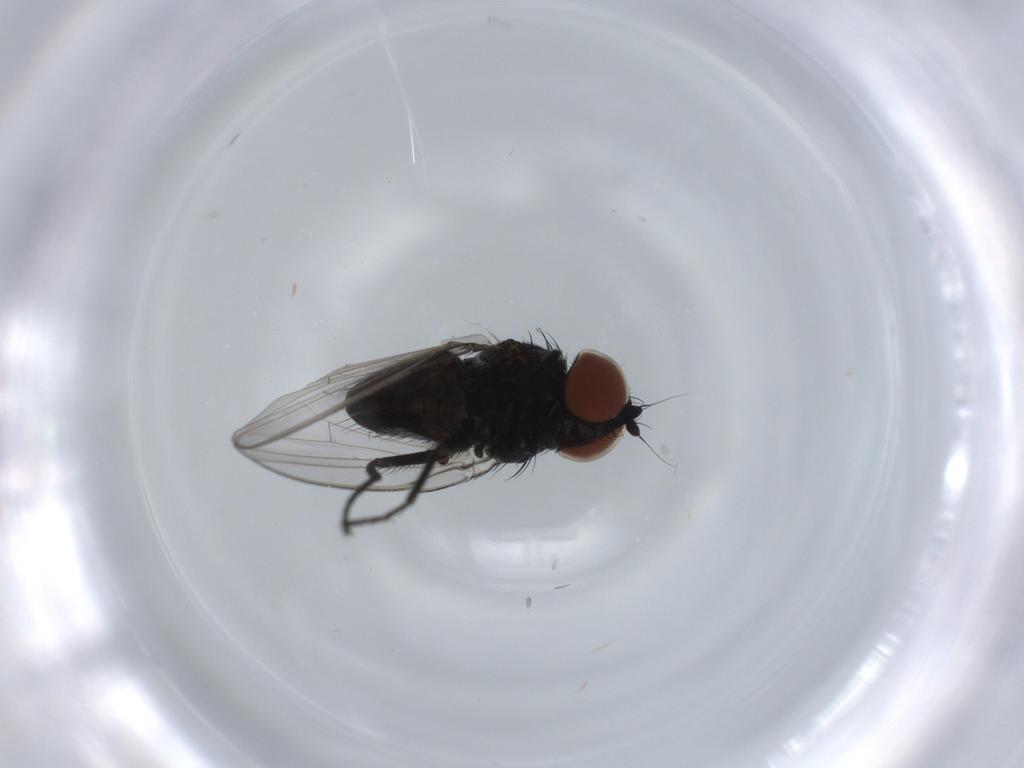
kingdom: Animalia
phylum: Arthropoda
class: Insecta
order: Diptera
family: Milichiidae
